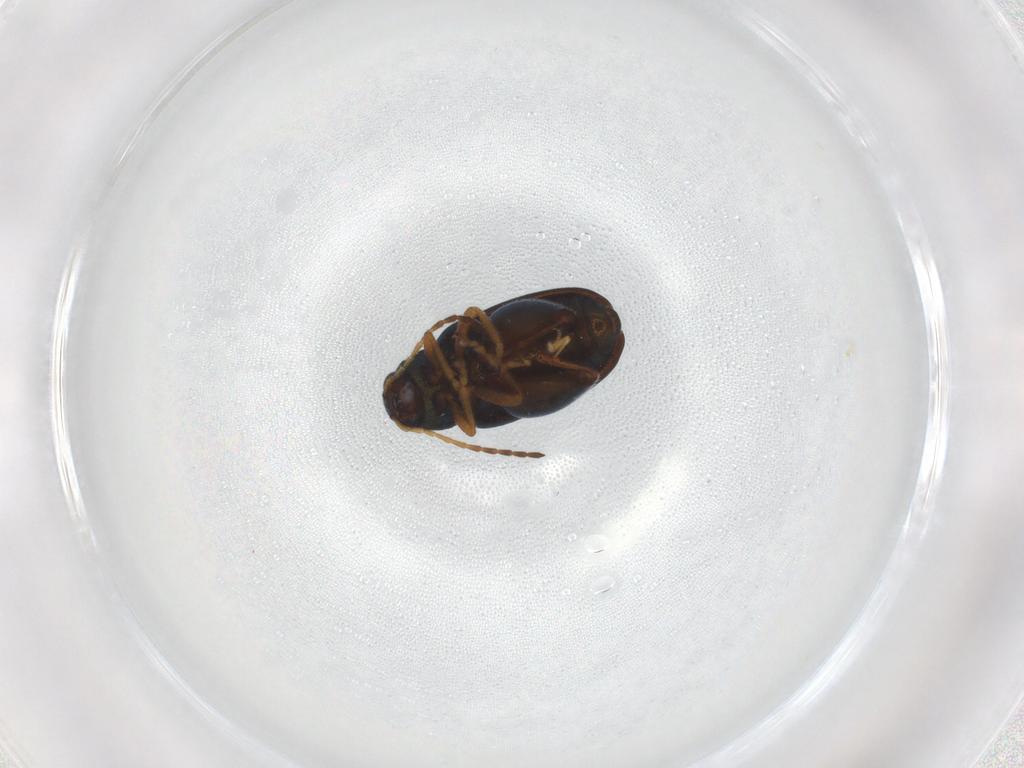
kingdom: Animalia
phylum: Arthropoda
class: Insecta
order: Coleoptera
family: Chrysomelidae
